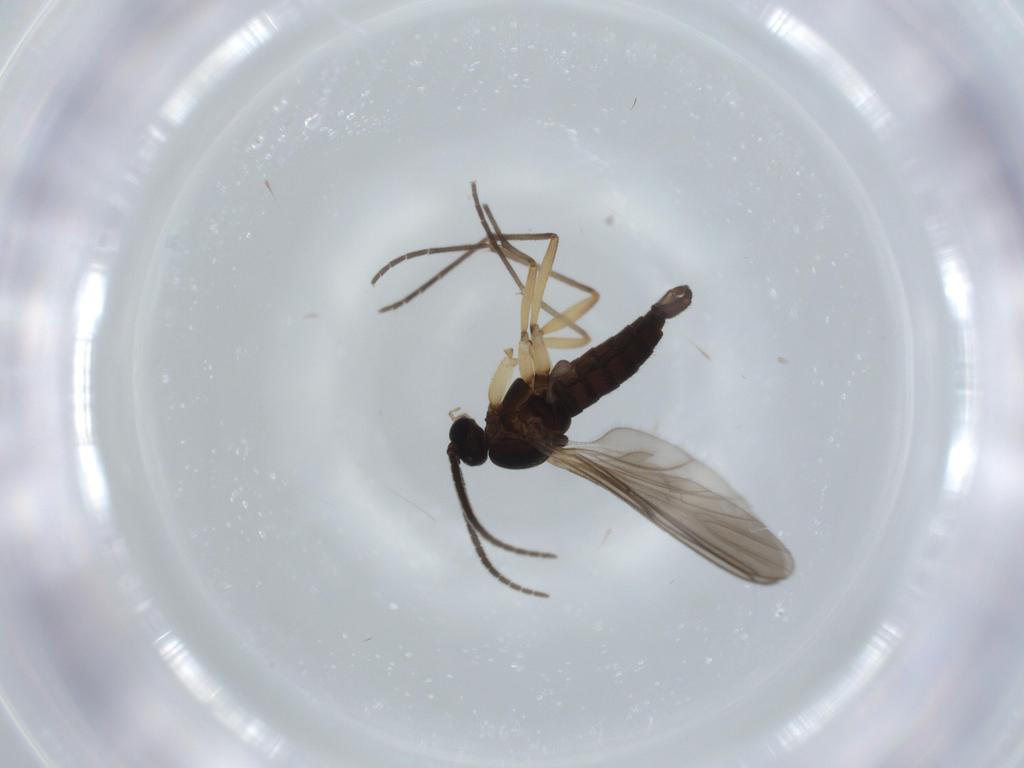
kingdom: Animalia
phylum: Arthropoda
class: Insecta
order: Diptera
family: Sciaridae
